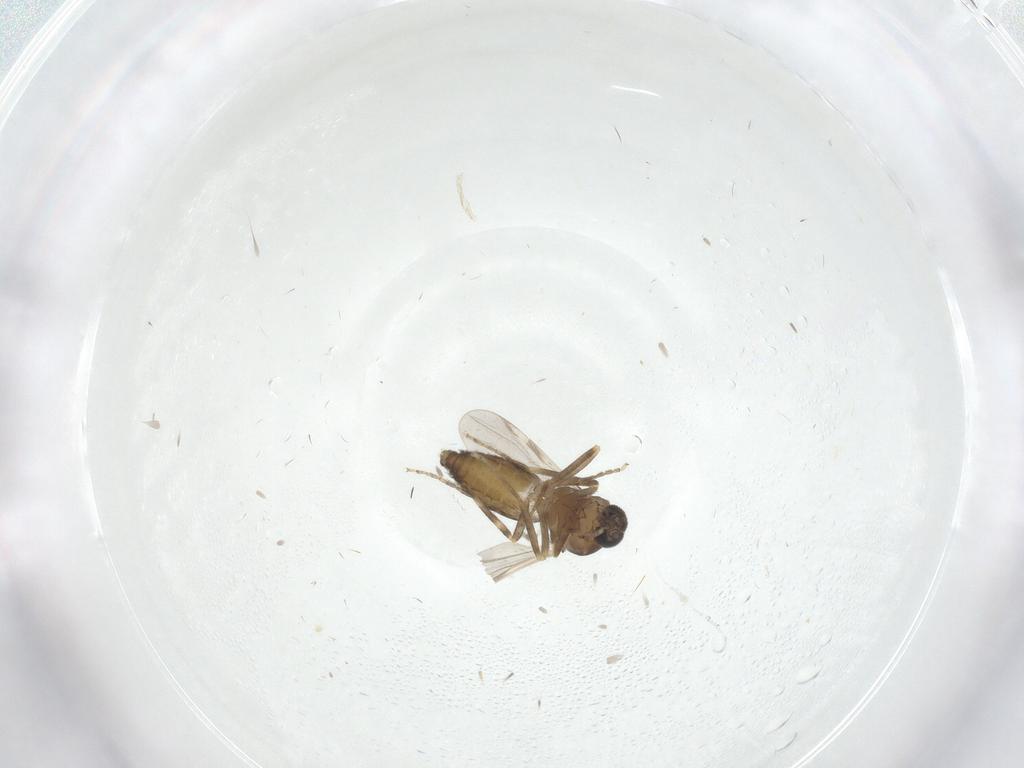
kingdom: Animalia
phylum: Arthropoda
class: Insecta
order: Diptera
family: Ceratopogonidae
